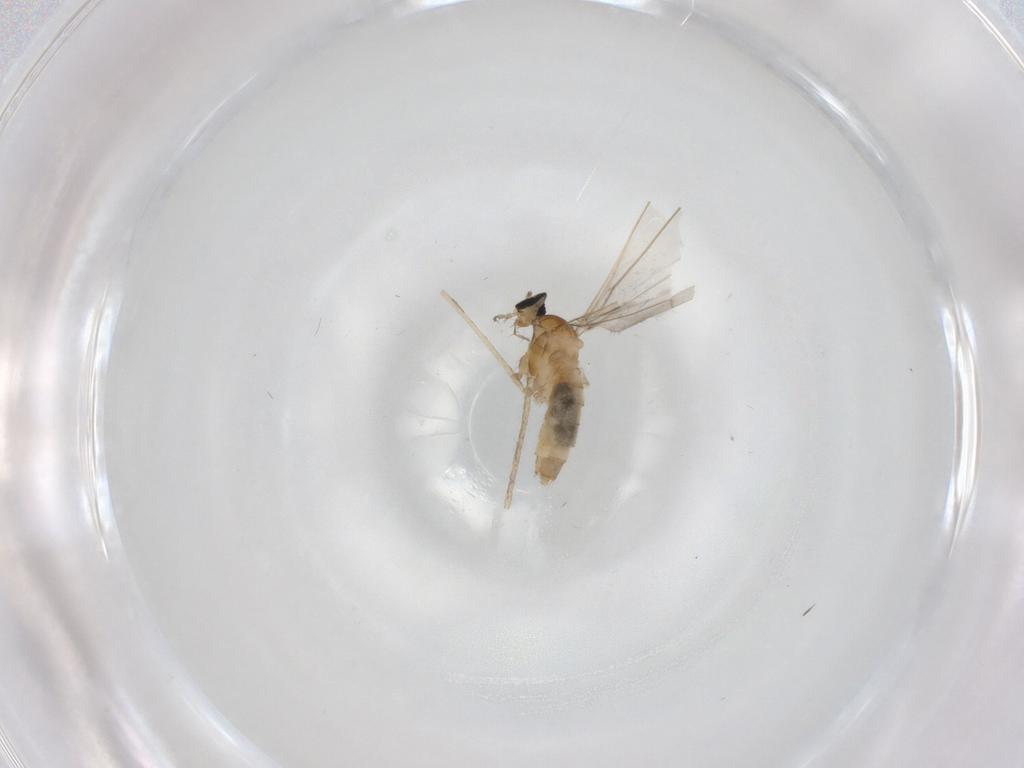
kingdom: Animalia
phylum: Arthropoda
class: Insecta
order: Diptera
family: Cecidomyiidae
